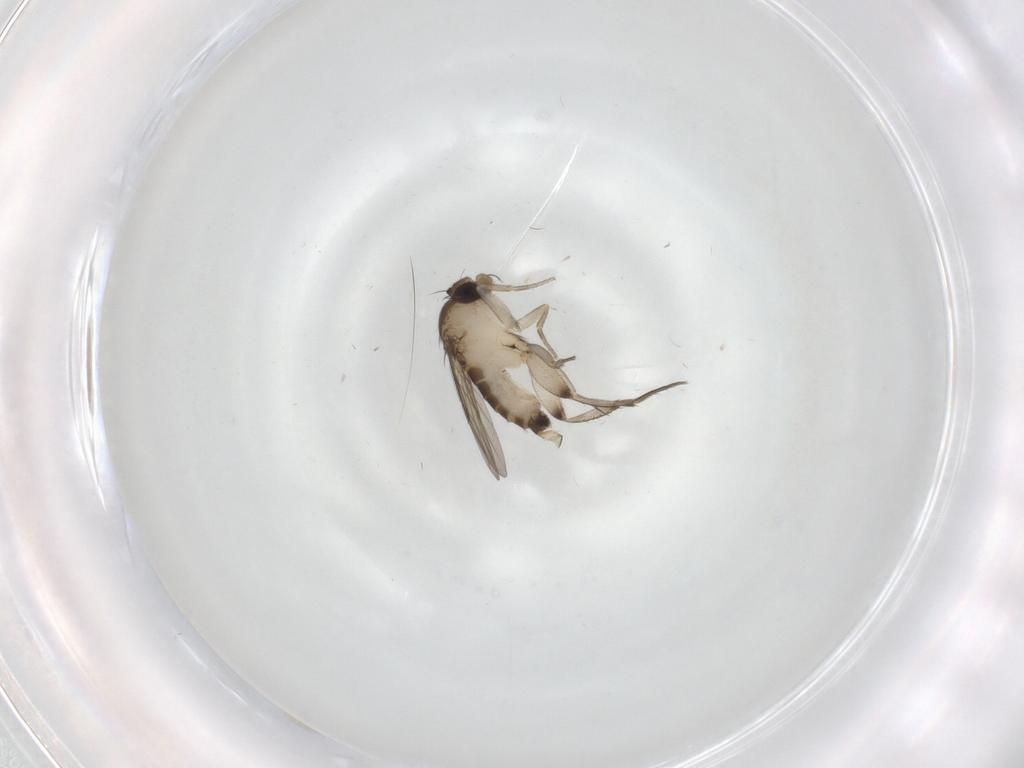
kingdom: Animalia
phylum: Arthropoda
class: Insecta
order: Diptera
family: Phoridae
